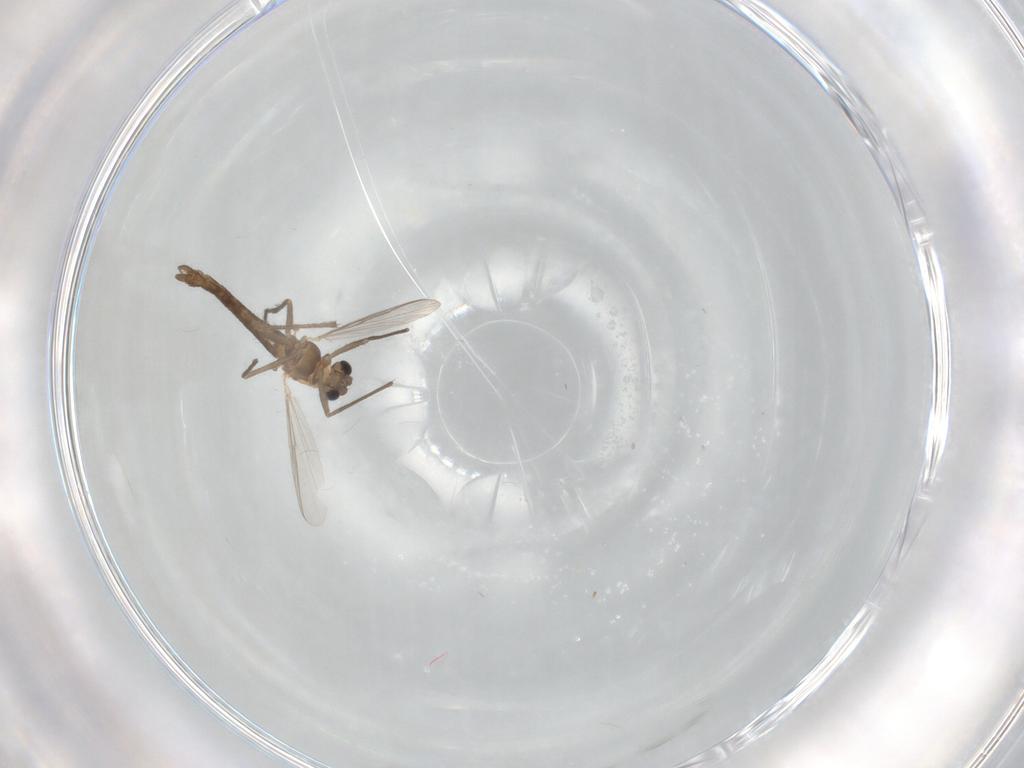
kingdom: Animalia
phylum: Arthropoda
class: Insecta
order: Diptera
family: Chironomidae
